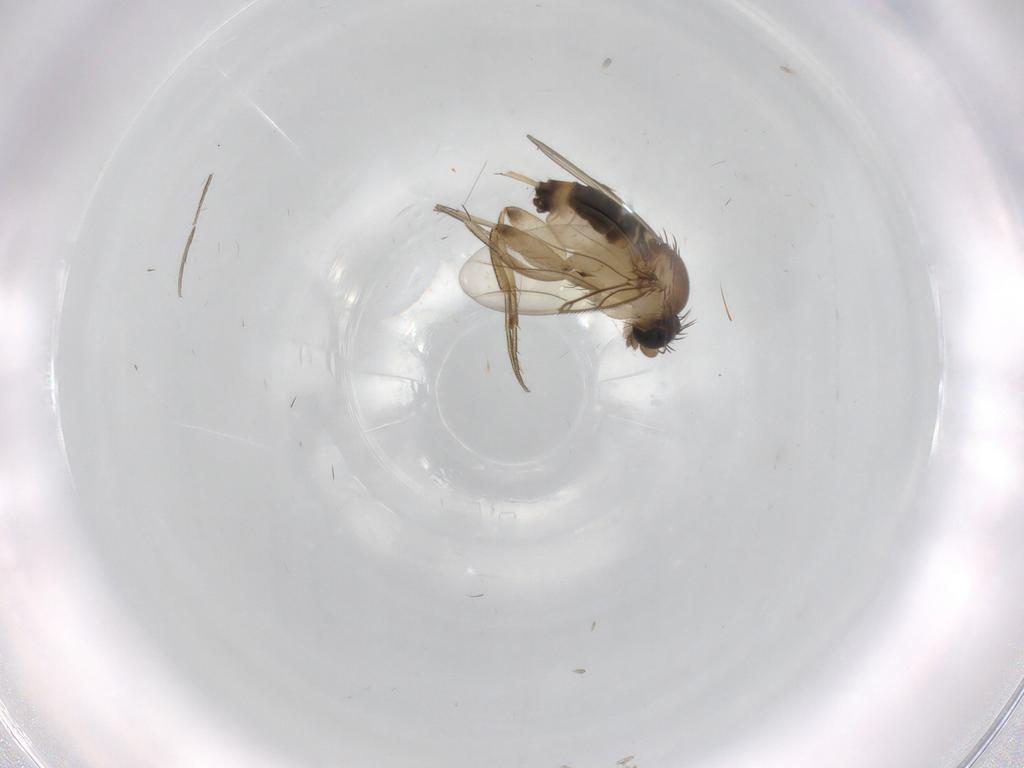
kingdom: Animalia
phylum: Arthropoda
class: Insecta
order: Diptera
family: Phoridae
